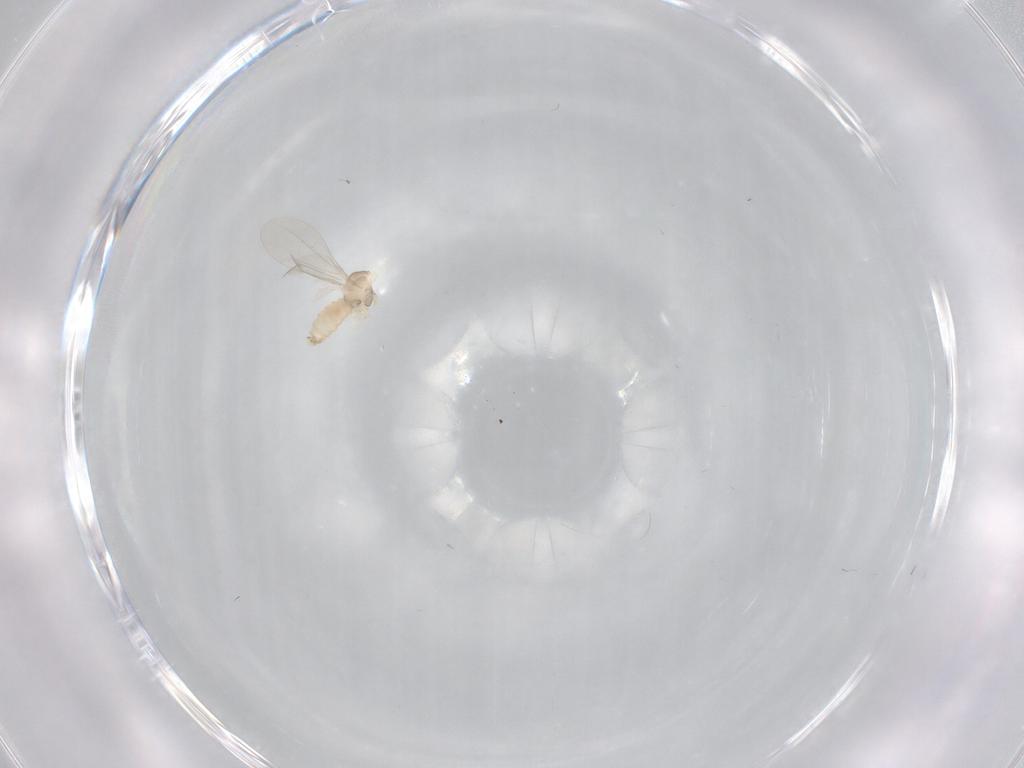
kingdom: Animalia
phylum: Arthropoda
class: Insecta
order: Diptera
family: Cecidomyiidae
